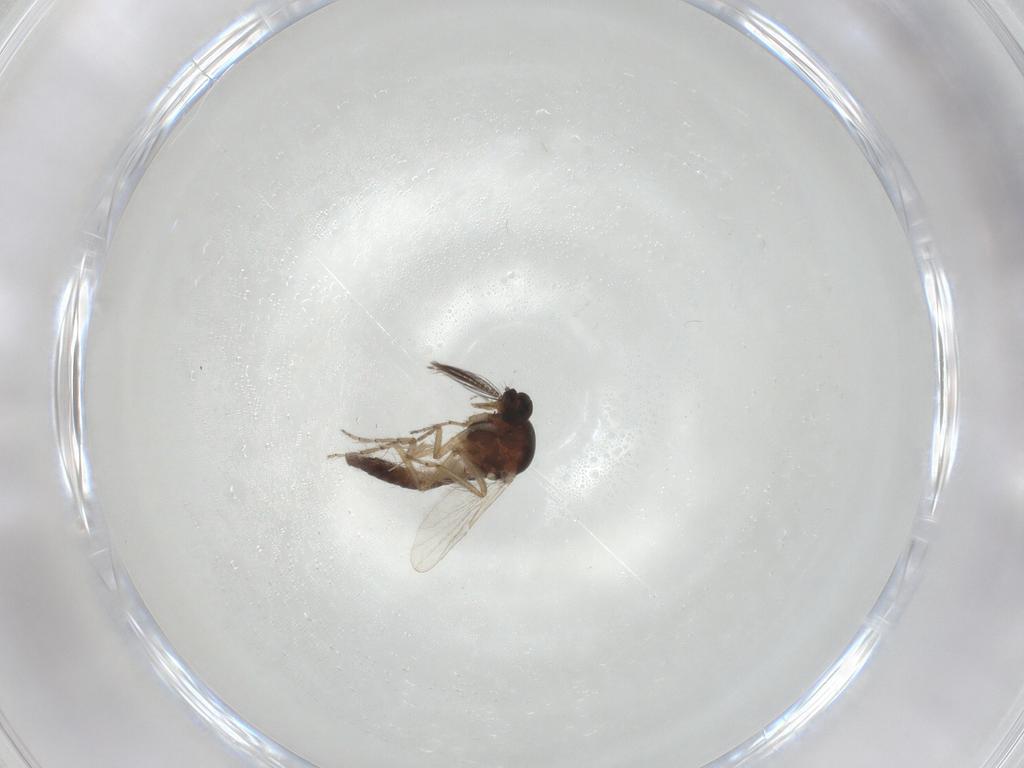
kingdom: Animalia
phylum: Arthropoda
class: Insecta
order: Diptera
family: Ceratopogonidae
